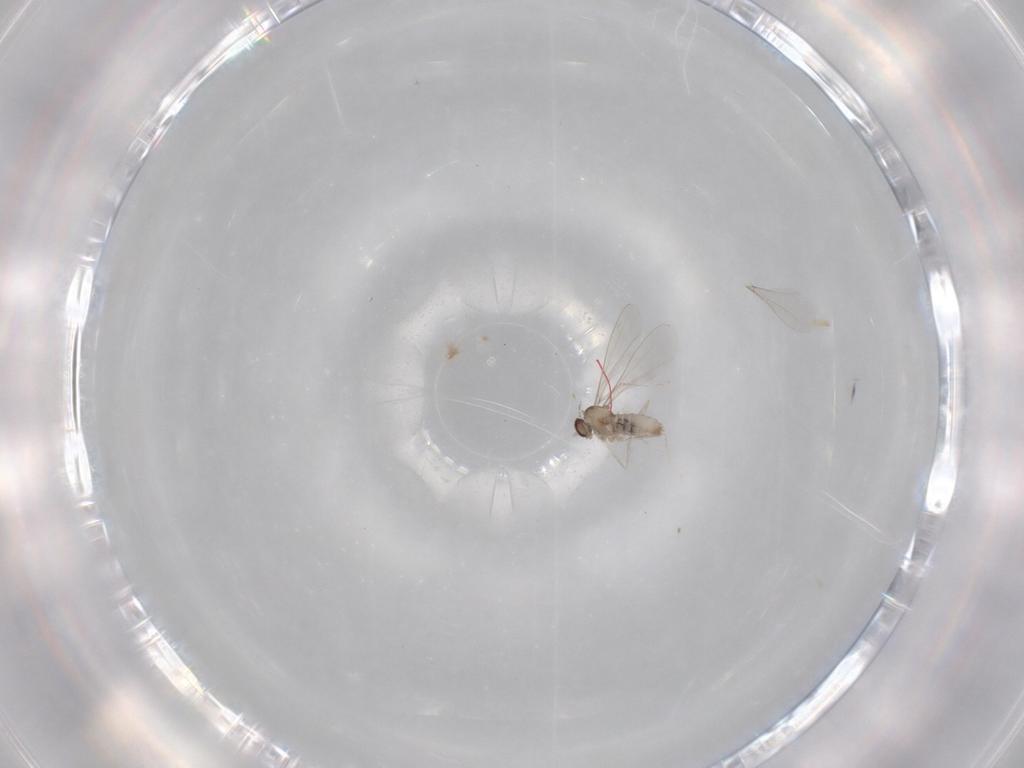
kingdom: Animalia
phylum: Arthropoda
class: Insecta
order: Diptera
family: Cecidomyiidae
